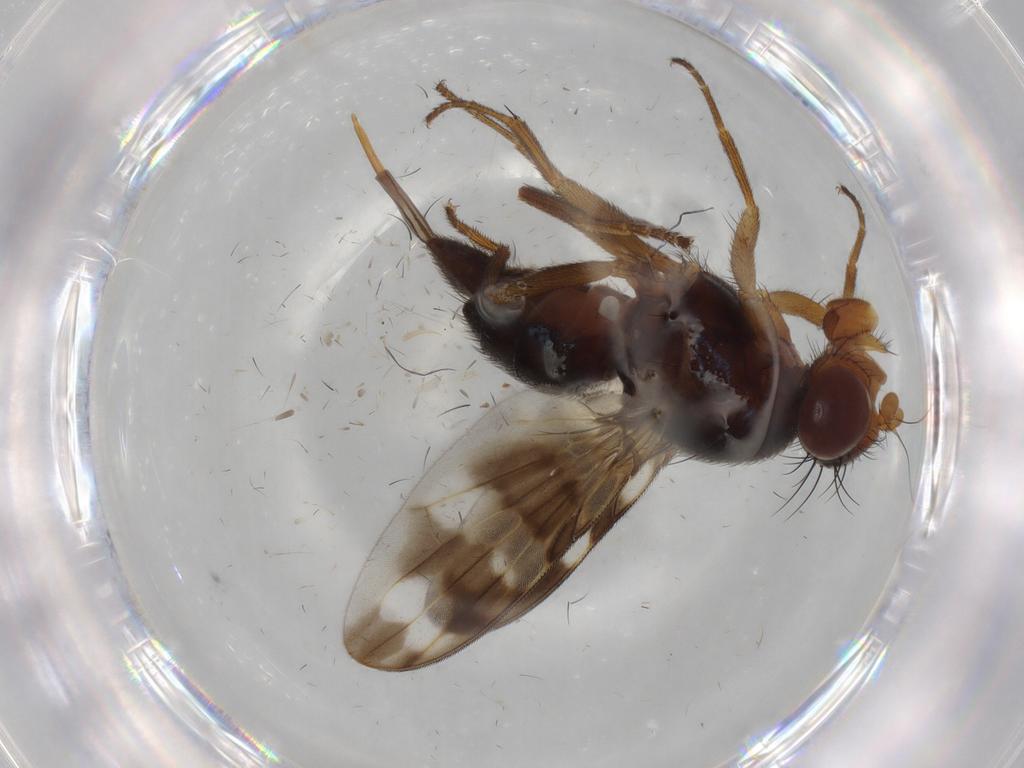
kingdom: Animalia
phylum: Arthropoda
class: Insecta
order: Diptera
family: Ulidiidae
